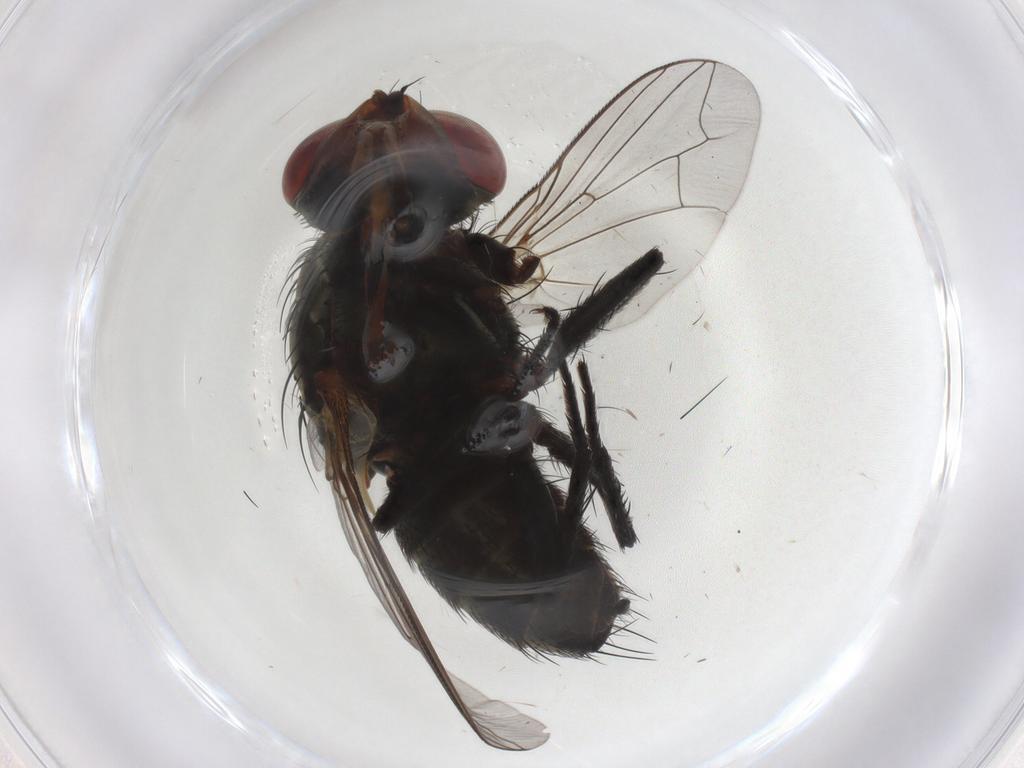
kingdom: Animalia
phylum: Arthropoda
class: Insecta
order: Diptera
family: Sarcophagidae
